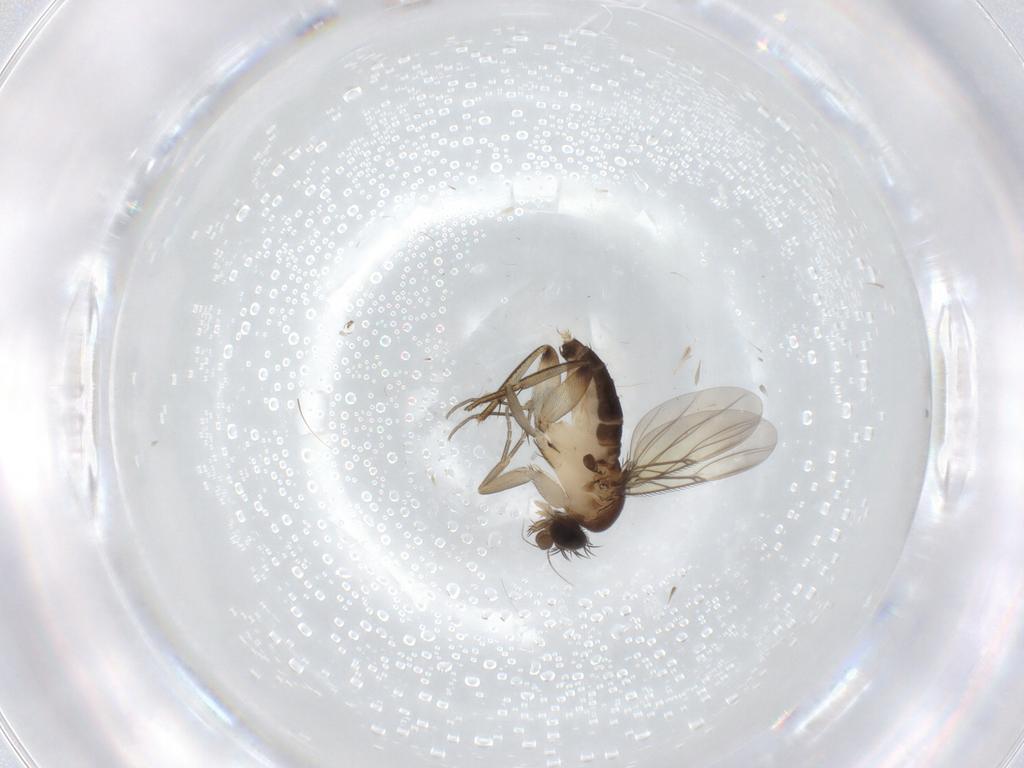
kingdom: Animalia
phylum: Arthropoda
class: Insecta
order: Diptera
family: Phoridae
